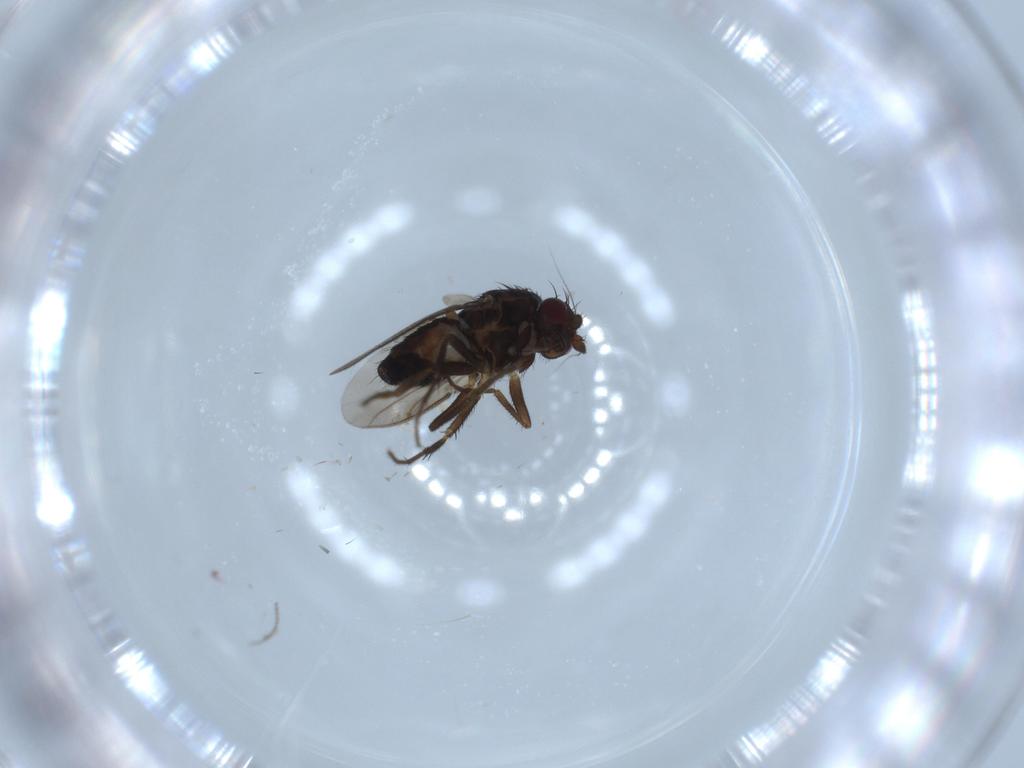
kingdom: Animalia
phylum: Arthropoda
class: Insecta
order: Diptera
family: Sphaeroceridae
